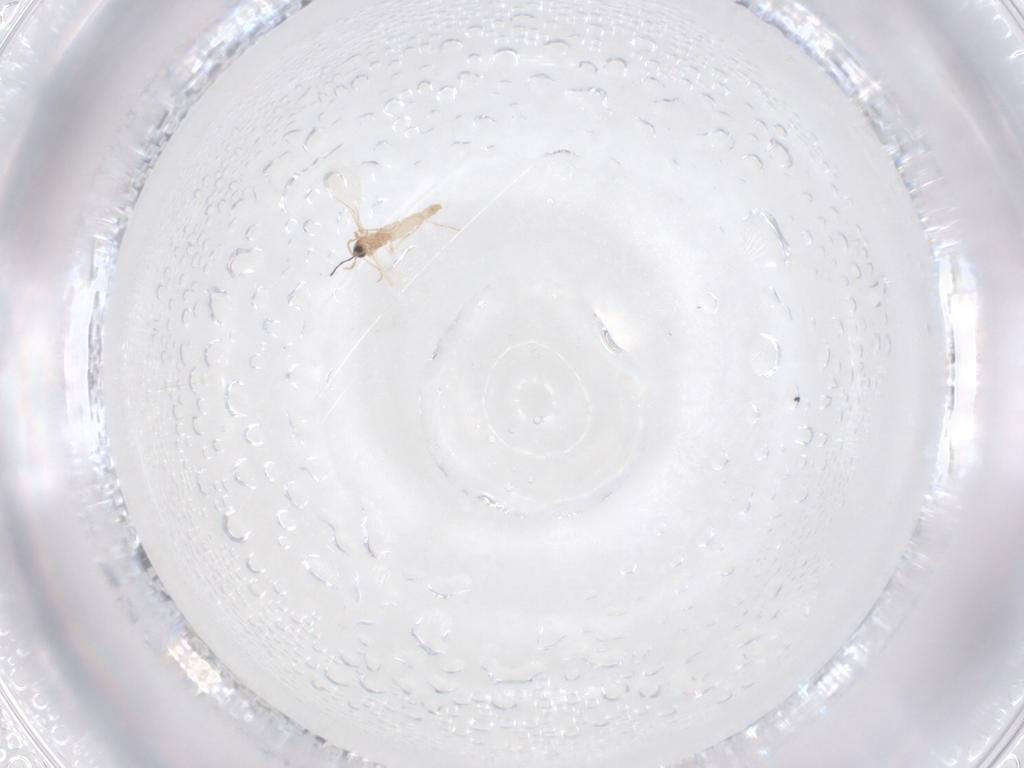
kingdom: Animalia
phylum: Arthropoda
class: Insecta
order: Diptera
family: Cecidomyiidae
